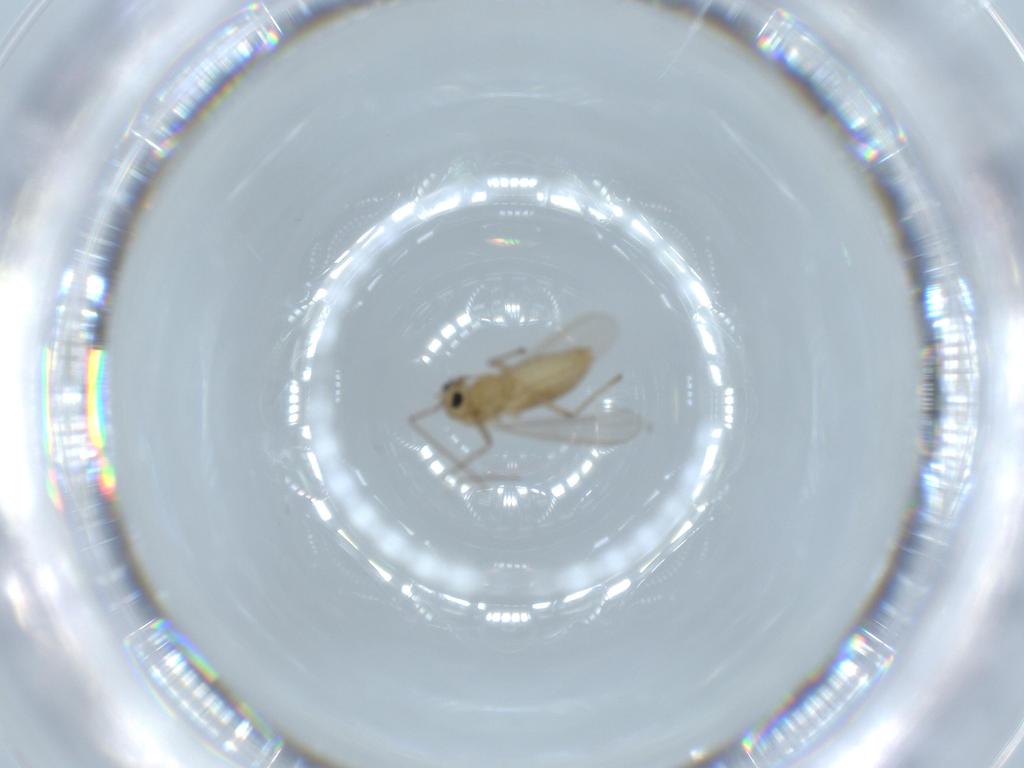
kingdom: Animalia
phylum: Arthropoda
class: Insecta
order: Diptera
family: Chironomidae
